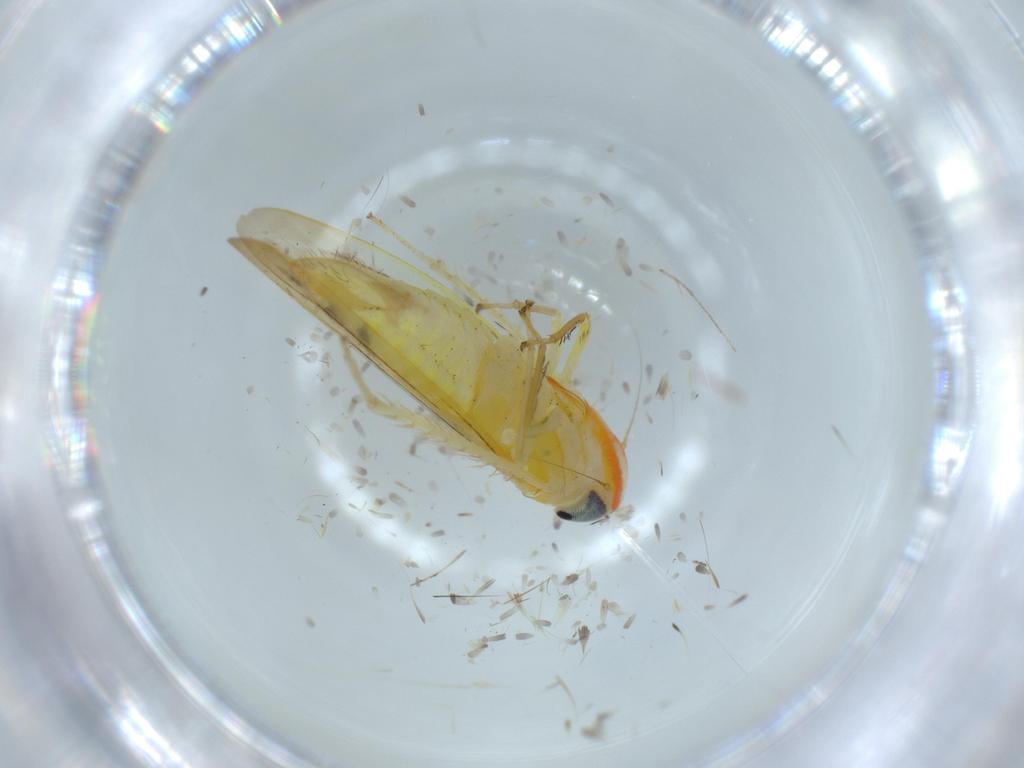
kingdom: Animalia
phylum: Arthropoda
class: Insecta
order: Hemiptera
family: Cicadellidae
